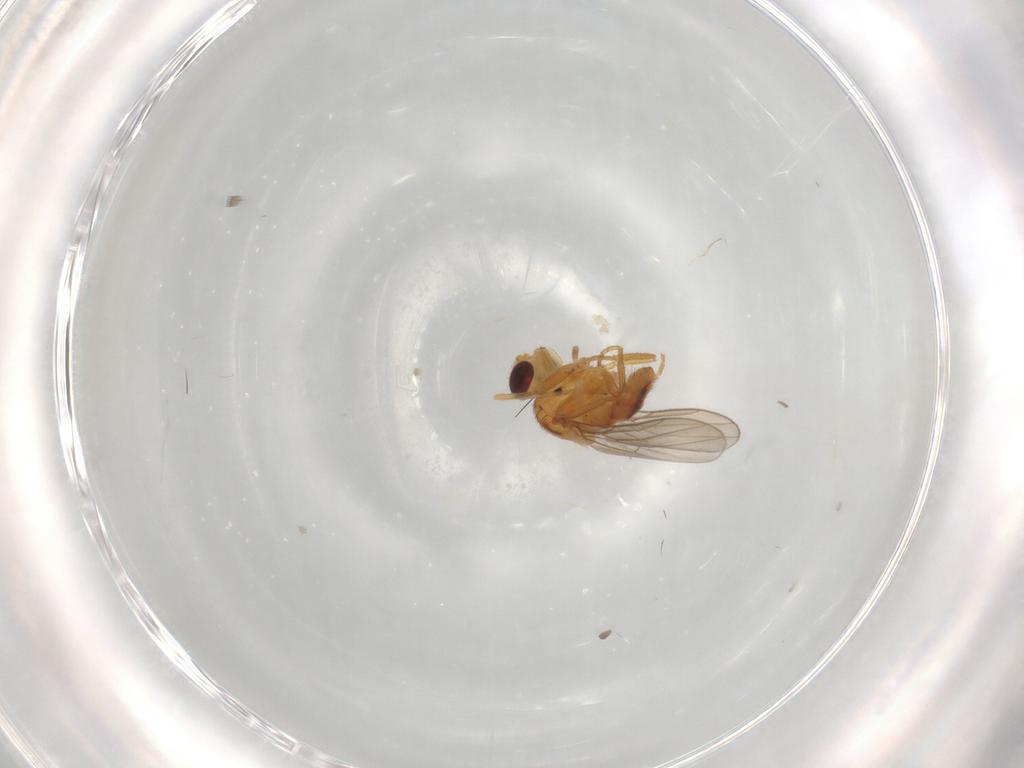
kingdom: Animalia
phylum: Arthropoda
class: Insecta
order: Diptera
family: Chloropidae
